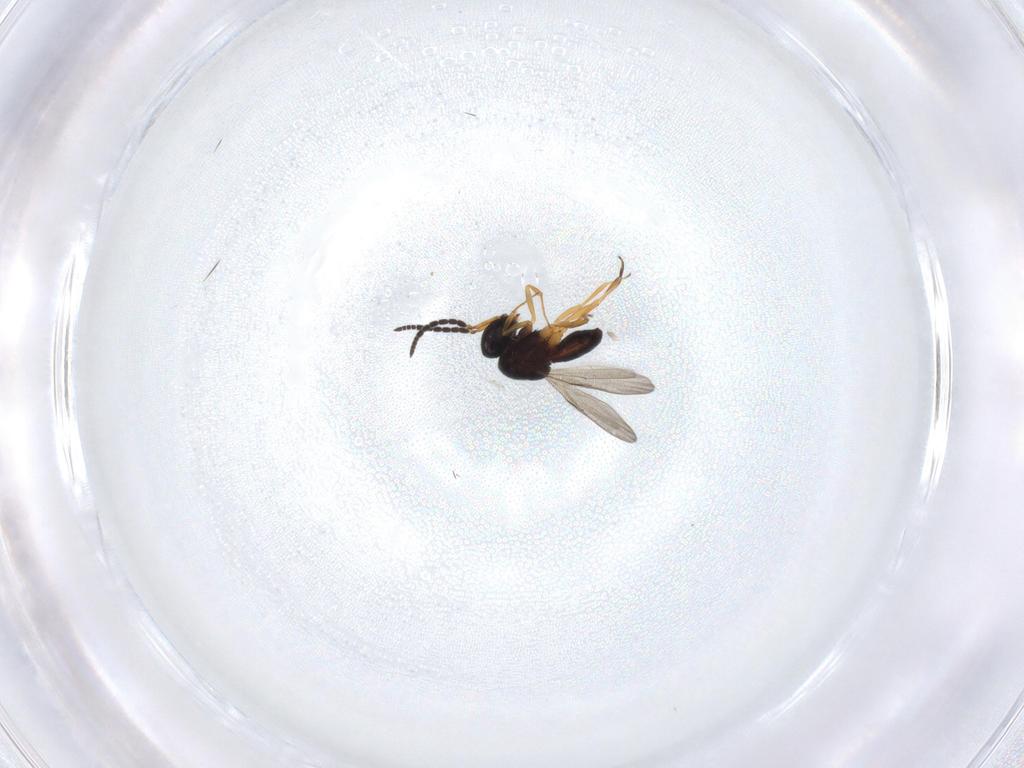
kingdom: Animalia
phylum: Arthropoda
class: Insecta
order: Hymenoptera
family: Scelionidae
